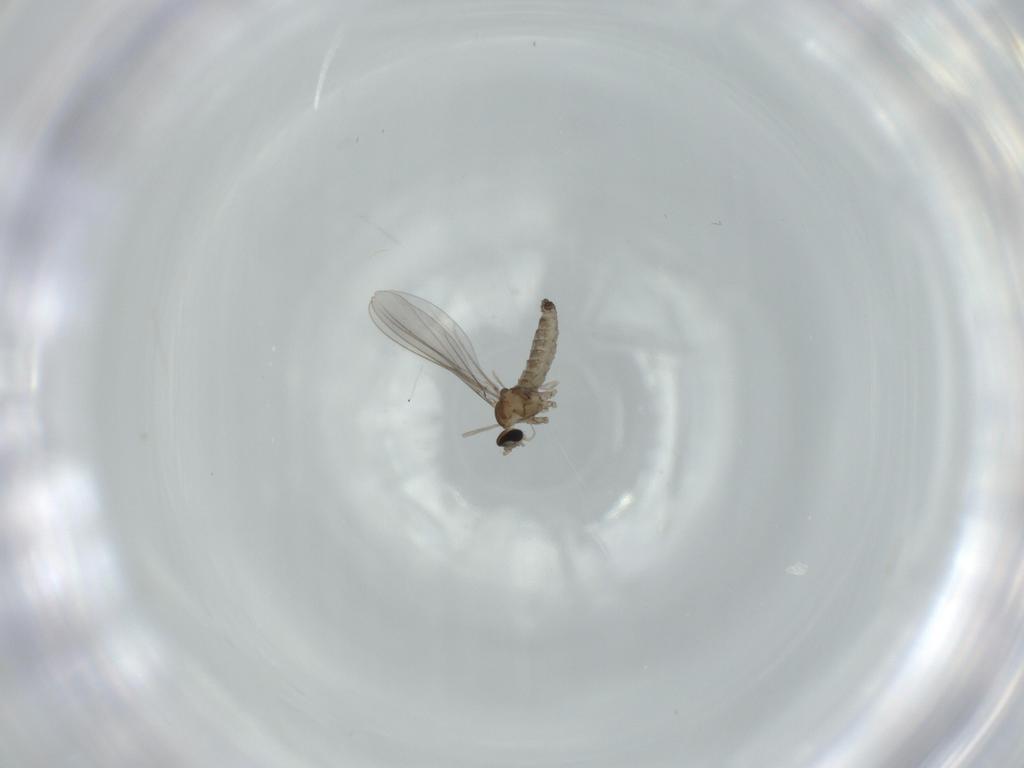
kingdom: Animalia
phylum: Arthropoda
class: Insecta
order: Diptera
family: Cecidomyiidae
